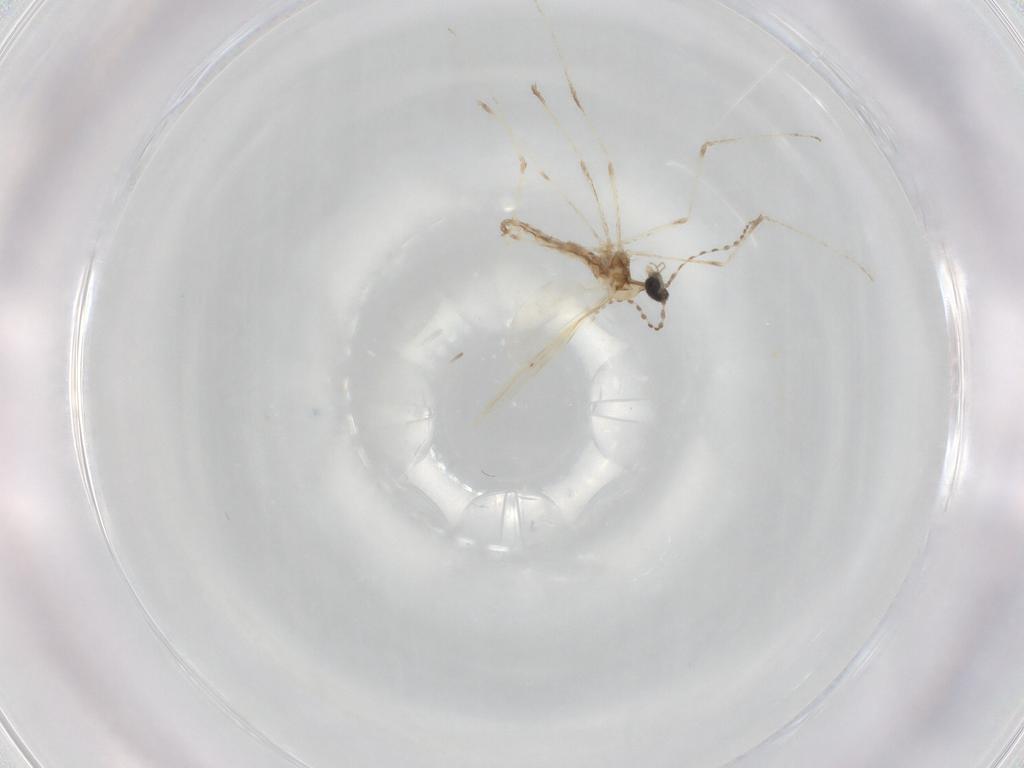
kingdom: Animalia
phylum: Arthropoda
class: Insecta
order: Diptera
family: Cecidomyiidae
